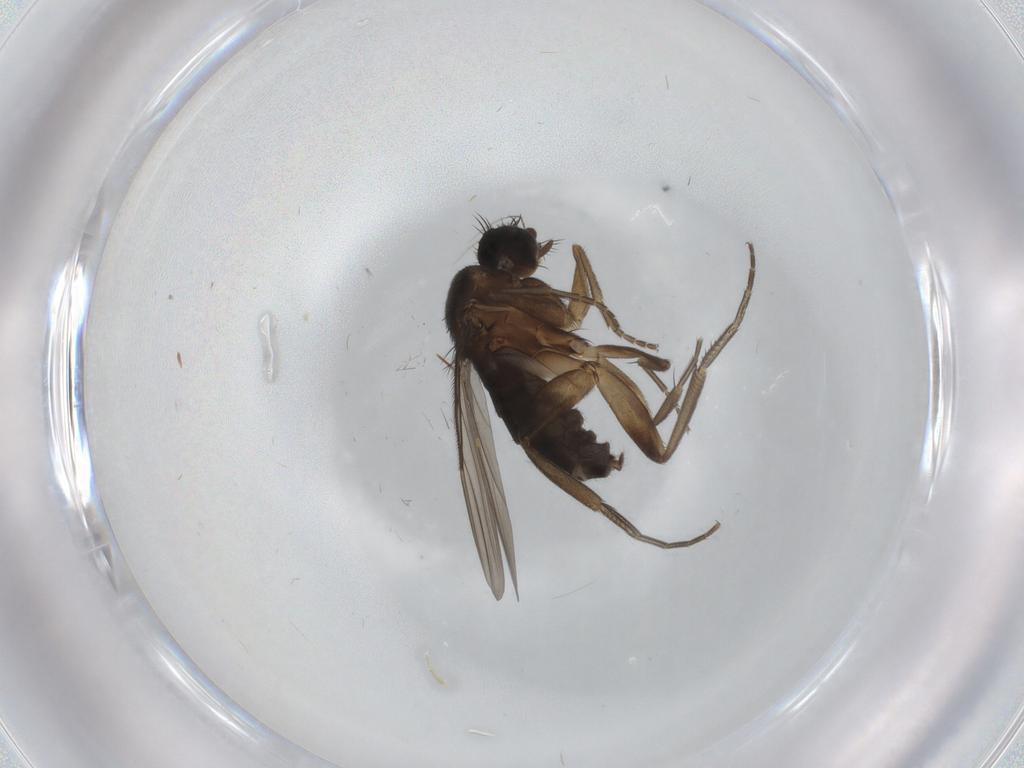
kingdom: Animalia
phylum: Arthropoda
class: Insecta
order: Diptera
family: Phoridae
